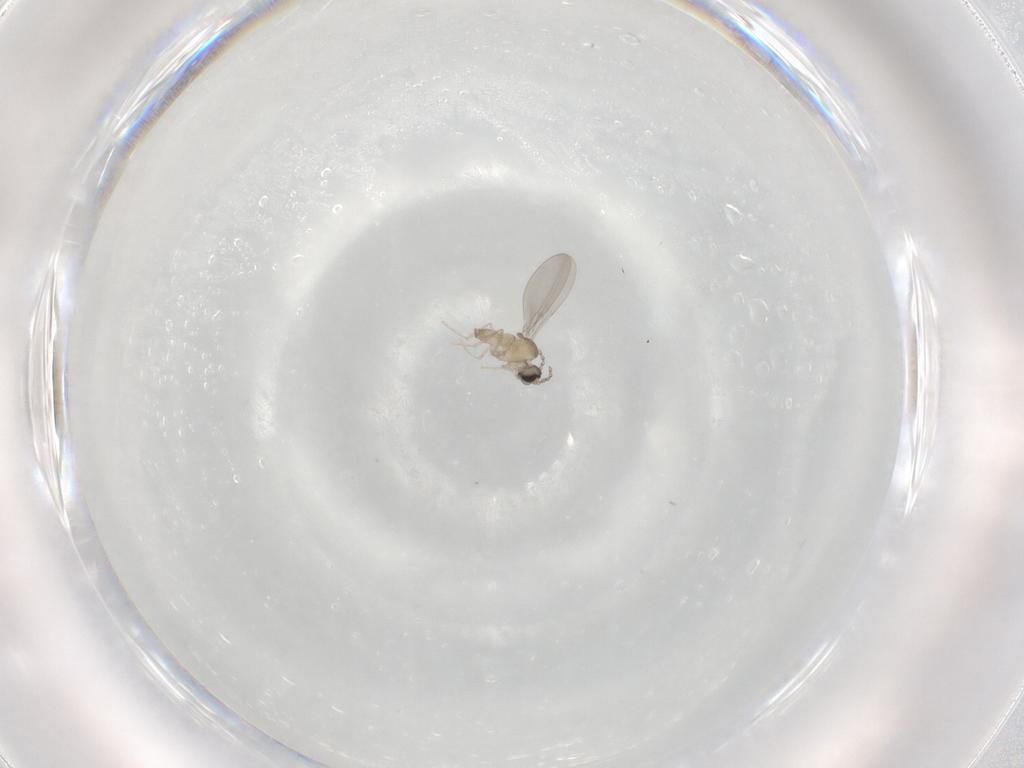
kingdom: Animalia
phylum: Arthropoda
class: Insecta
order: Diptera
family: Cecidomyiidae
